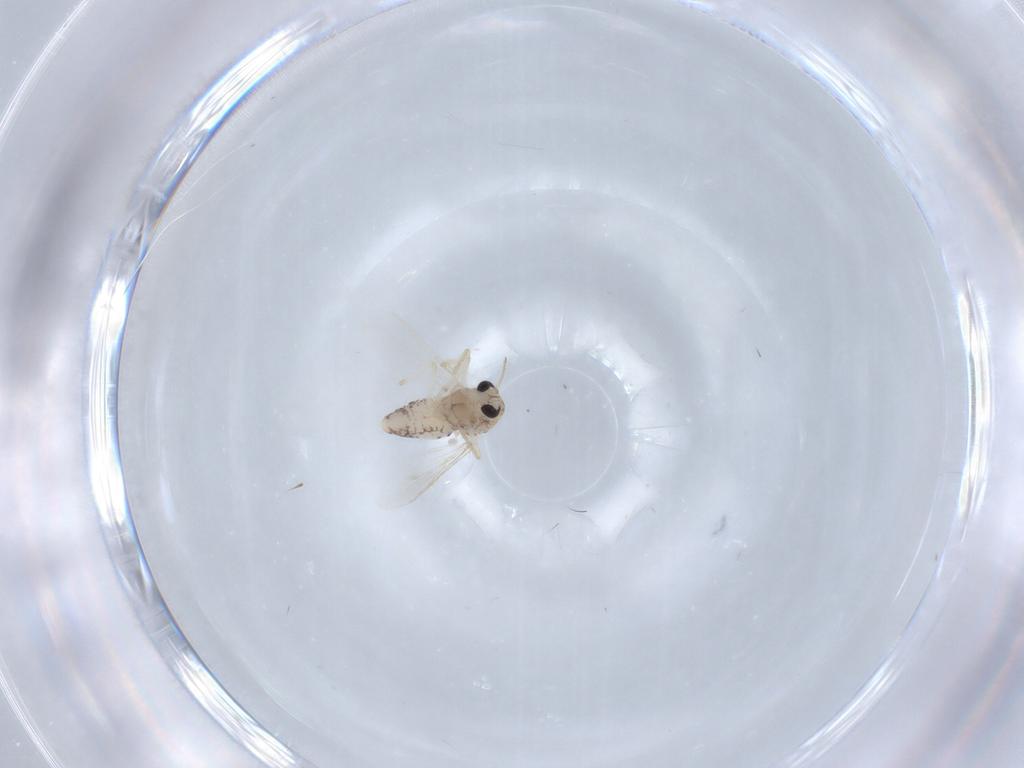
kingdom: Animalia
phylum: Arthropoda
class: Insecta
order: Diptera
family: Chironomidae
